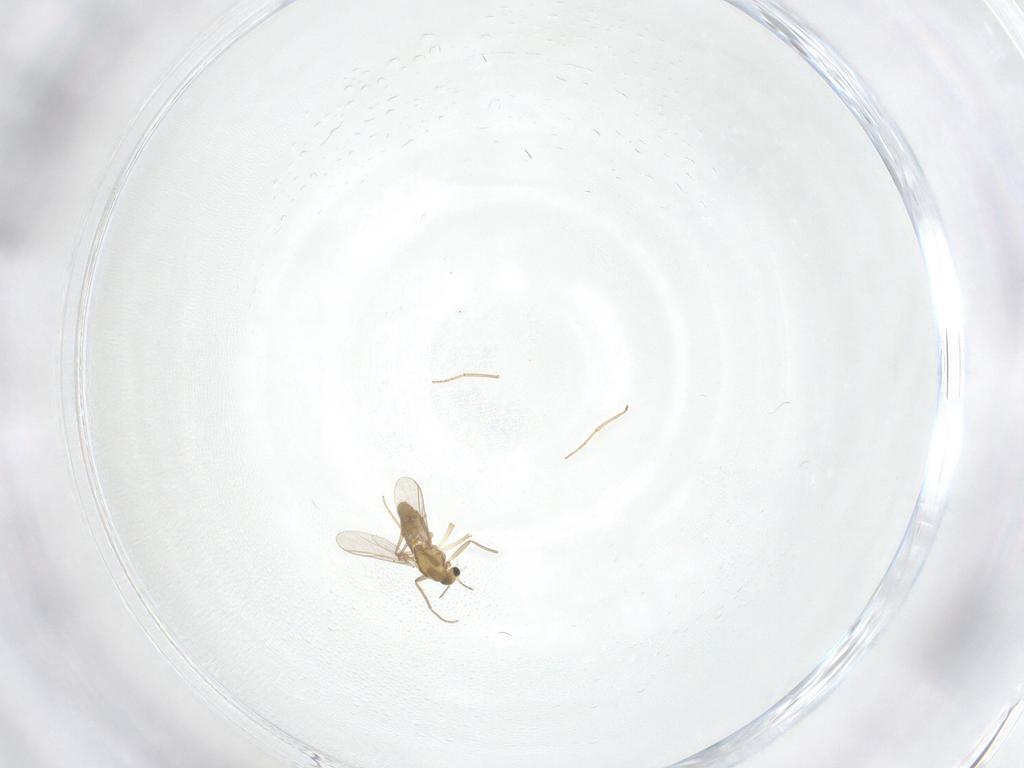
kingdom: Animalia
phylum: Arthropoda
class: Insecta
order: Diptera
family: Chironomidae
